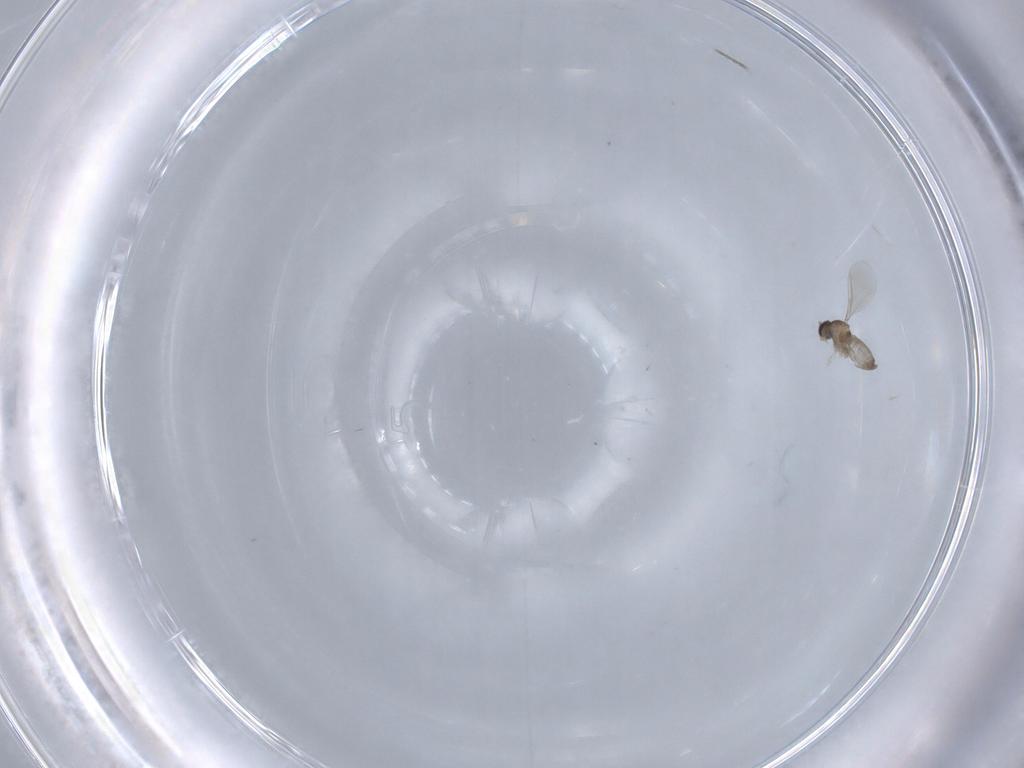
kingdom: Animalia
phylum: Arthropoda
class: Insecta
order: Diptera
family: Cecidomyiidae
